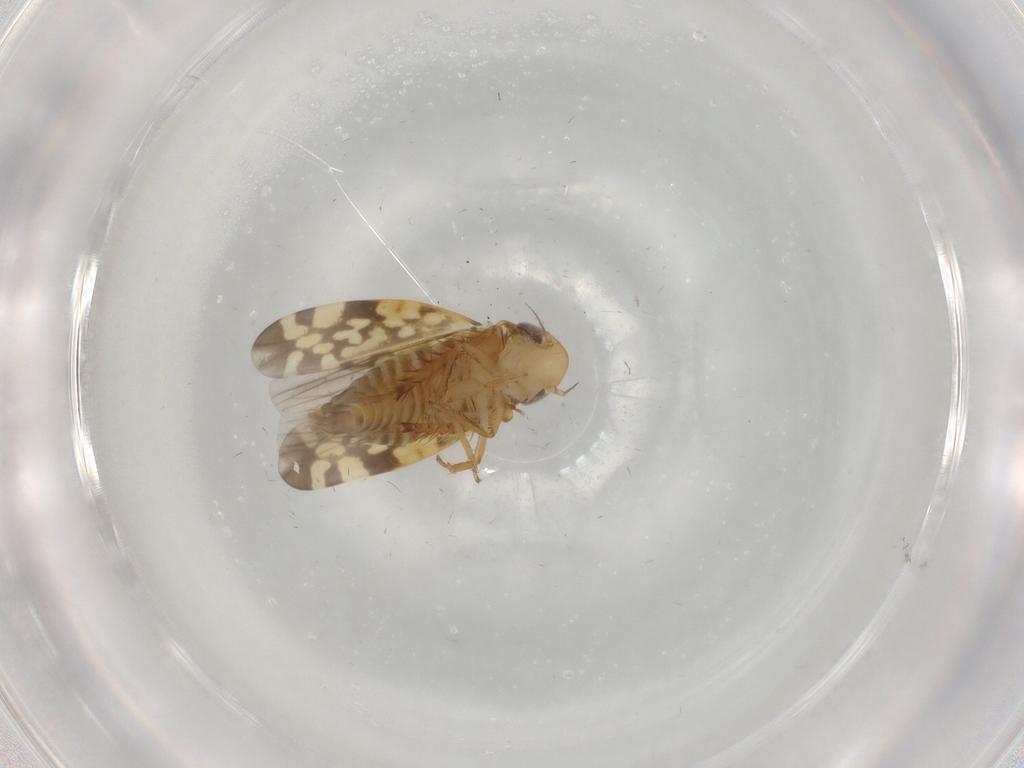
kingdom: Animalia
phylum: Arthropoda
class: Insecta
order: Hemiptera
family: Cicadellidae
